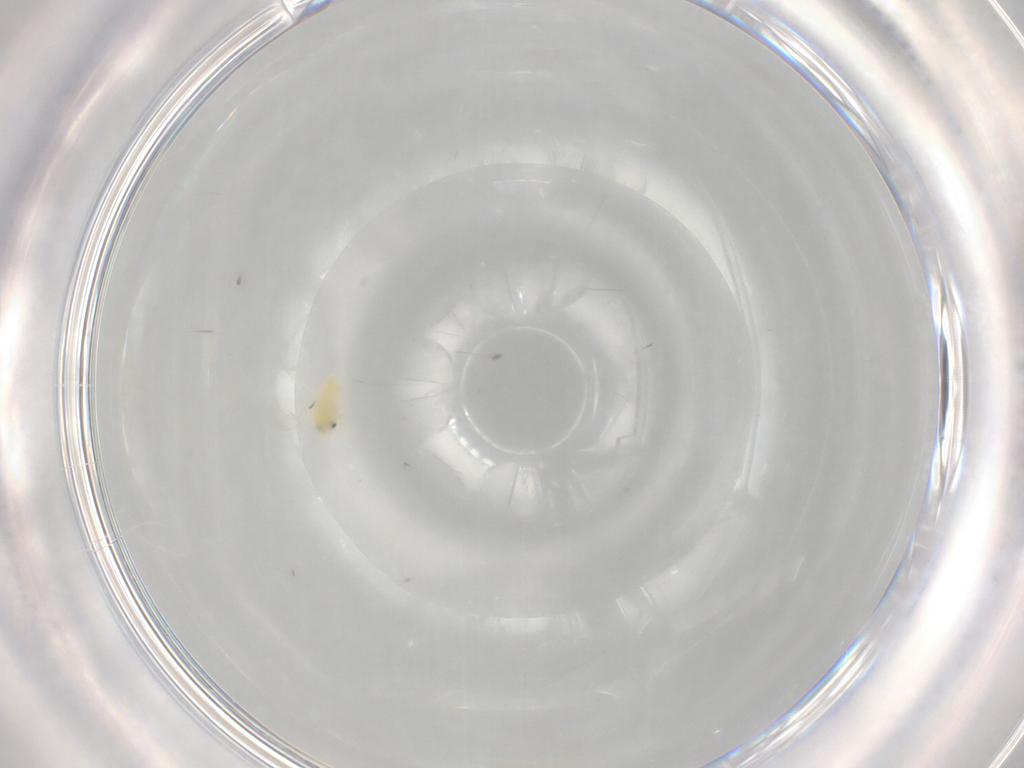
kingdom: Animalia
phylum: Arthropoda
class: Insecta
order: Hemiptera
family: Aleyrodidae
